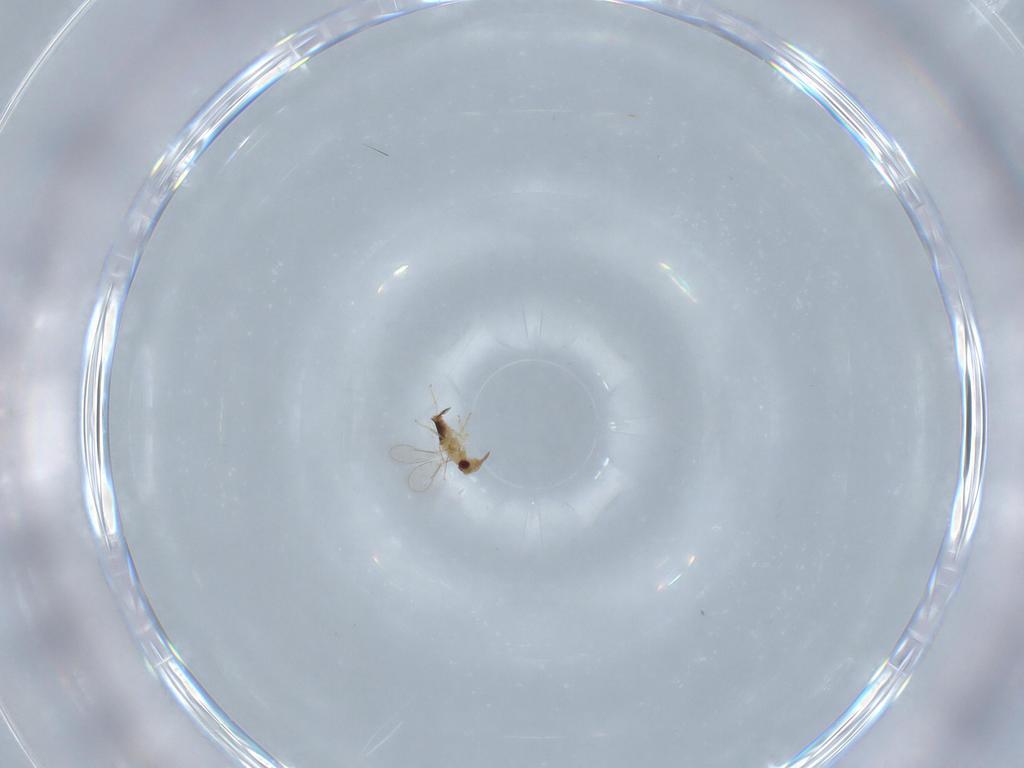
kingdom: Animalia
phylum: Arthropoda
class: Insecta
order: Hymenoptera
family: Aphelinidae
